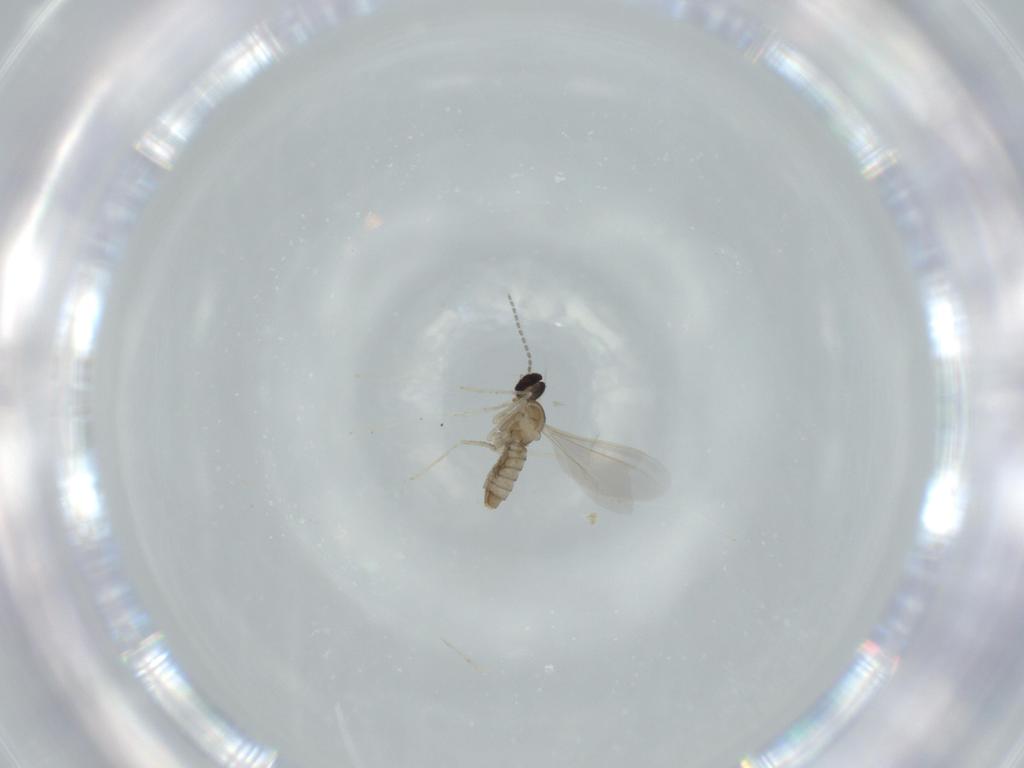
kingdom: Animalia
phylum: Arthropoda
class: Insecta
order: Diptera
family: Cecidomyiidae
